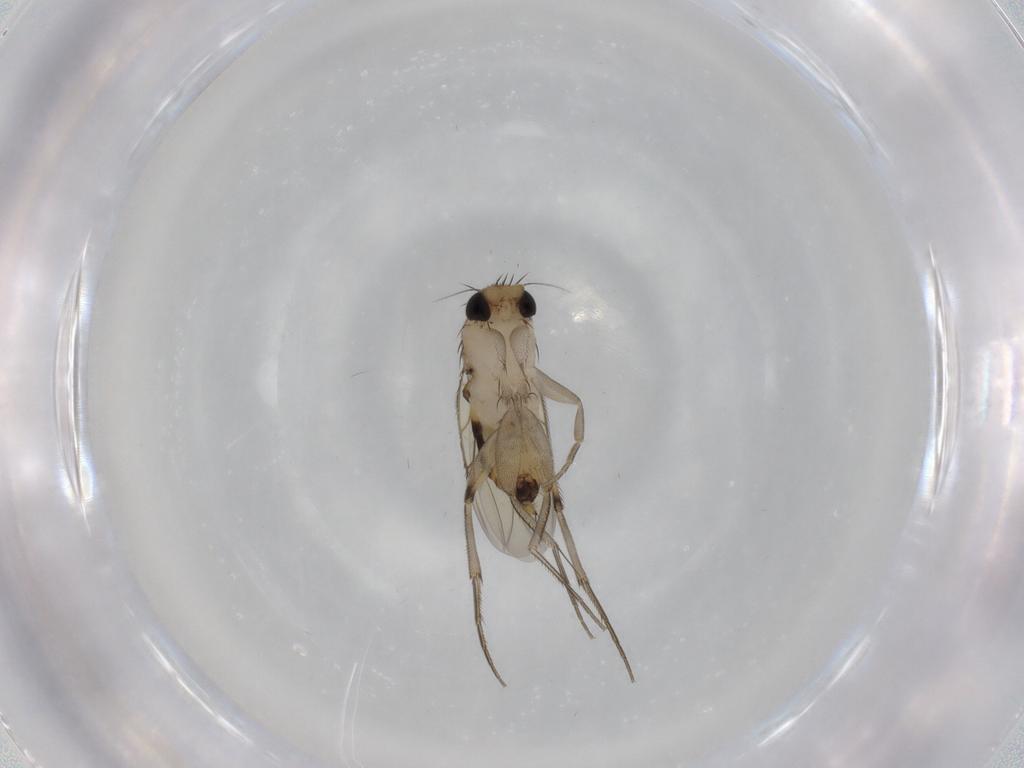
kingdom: Animalia
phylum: Arthropoda
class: Insecta
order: Diptera
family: Phoridae
